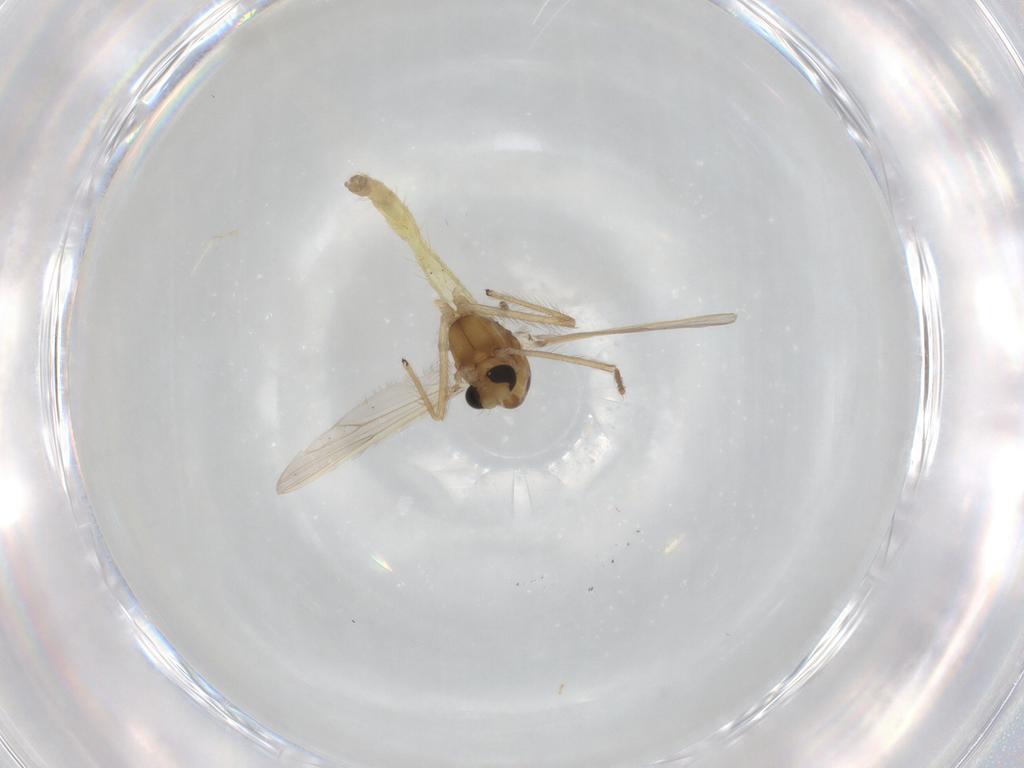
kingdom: Animalia
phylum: Arthropoda
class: Insecta
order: Diptera
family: Chironomidae
